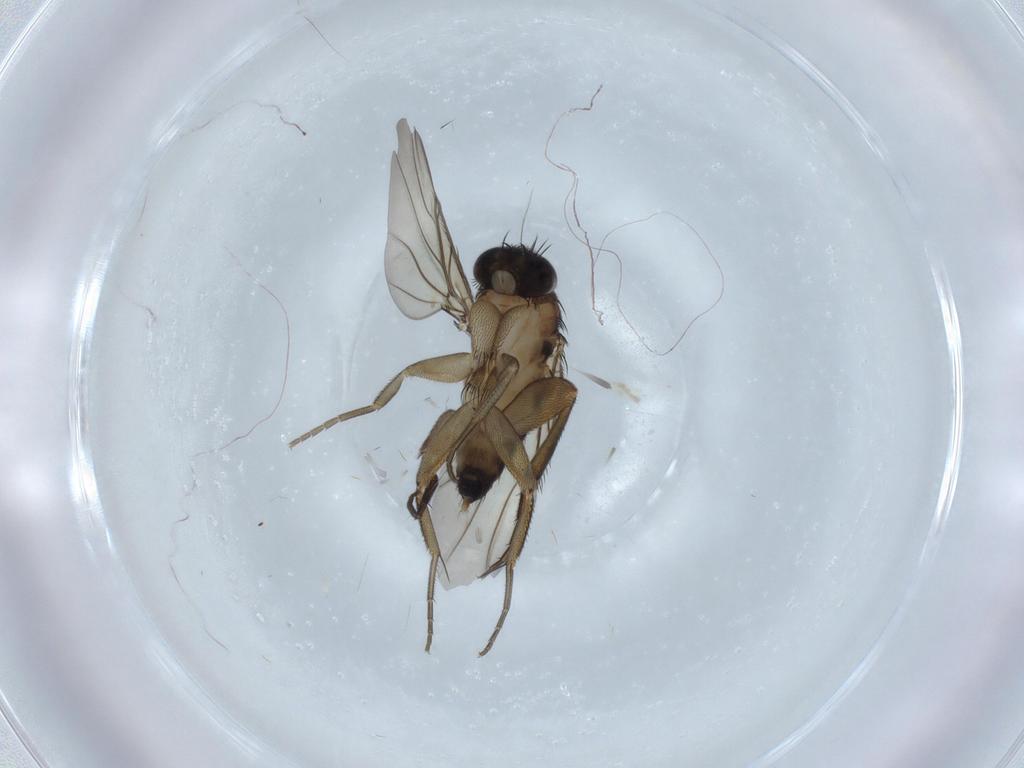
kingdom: Animalia
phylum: Arthropoda
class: Insecta
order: Diptera
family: Phoridae
